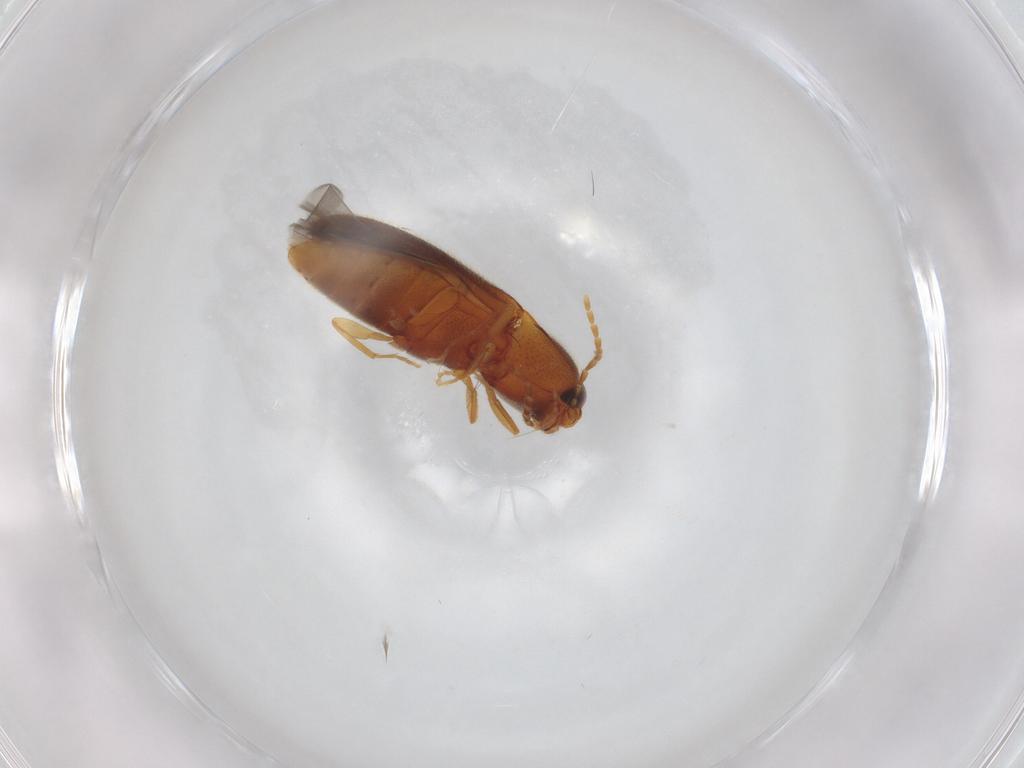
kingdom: Animalia
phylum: Arthropoda
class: Insecta
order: Coleoptera
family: Elateridae
